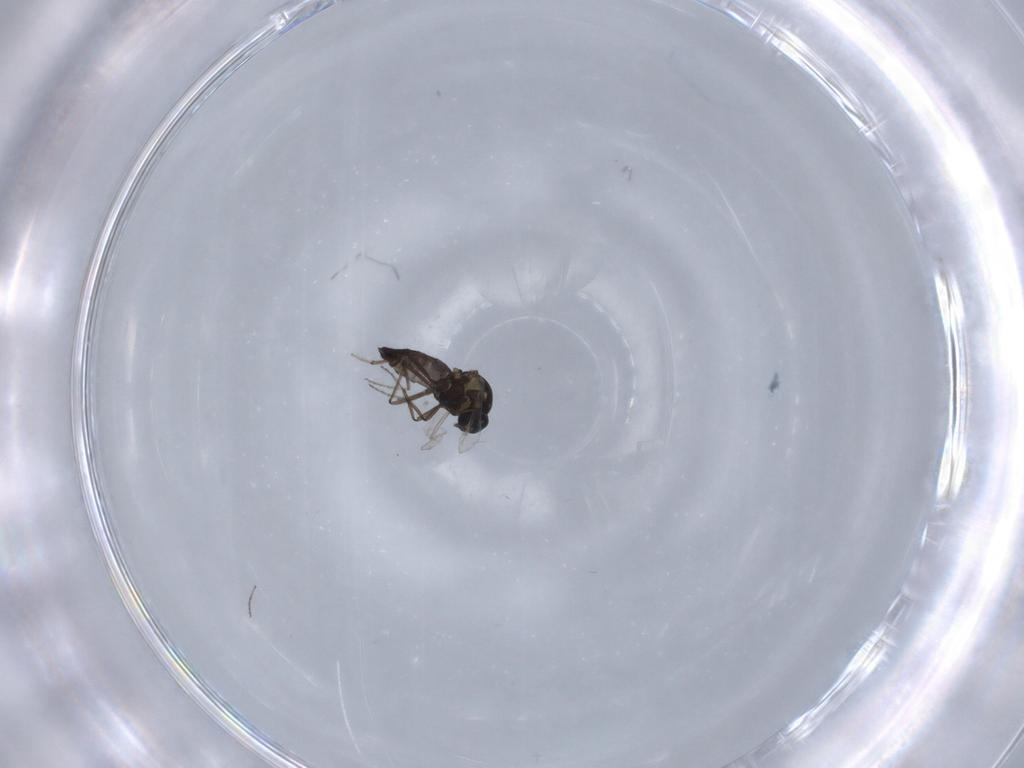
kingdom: Animalia
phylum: Arthropoda
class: Insecta
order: Diptera
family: Ceratopogonidae
